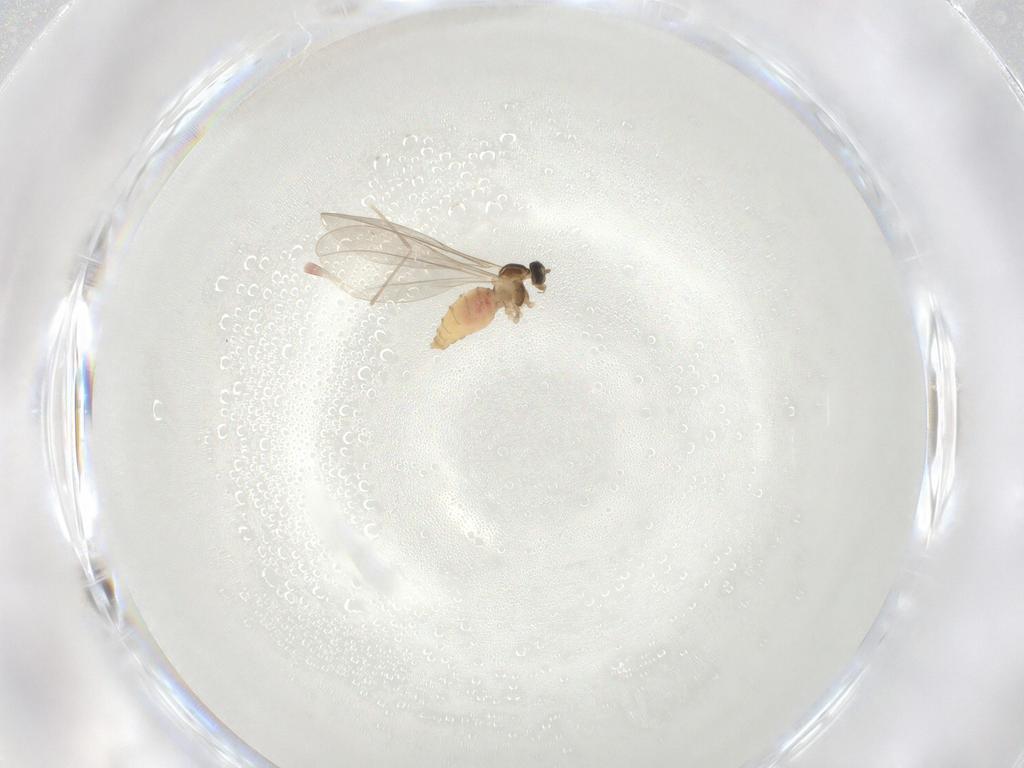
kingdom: Animalia
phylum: Arthropoda
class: Insecta
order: Diptera
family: Cecidomyiidae
